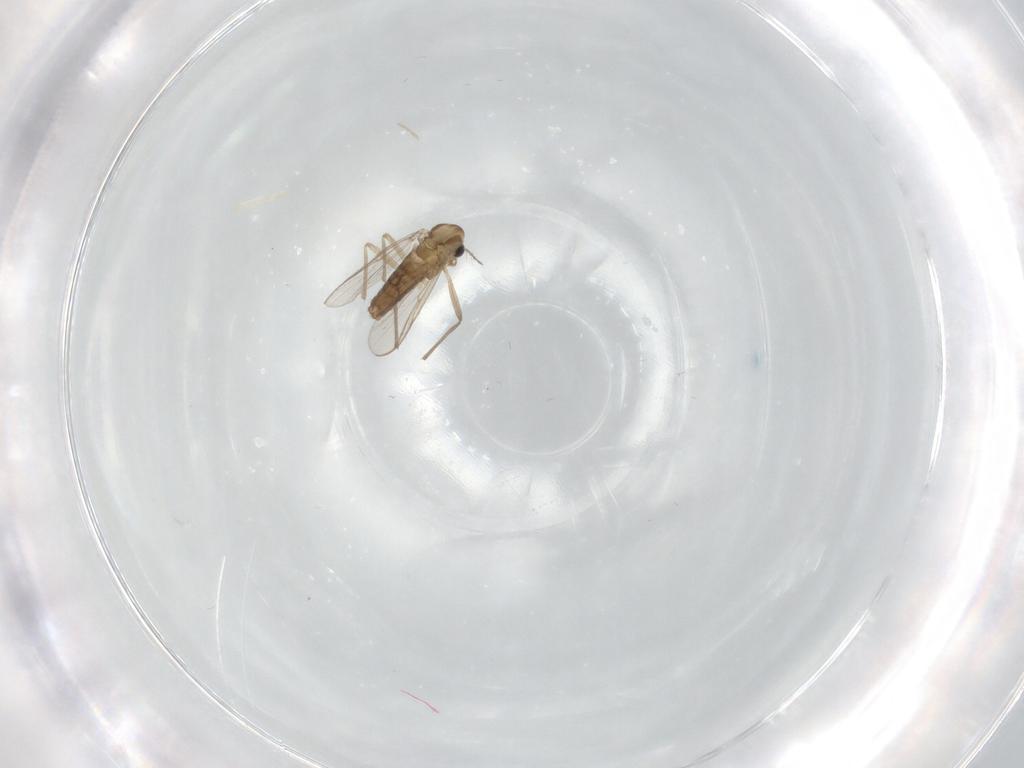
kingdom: Animalia
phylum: Arthropoda
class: Insecta
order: Diptera
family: Chironomidae
